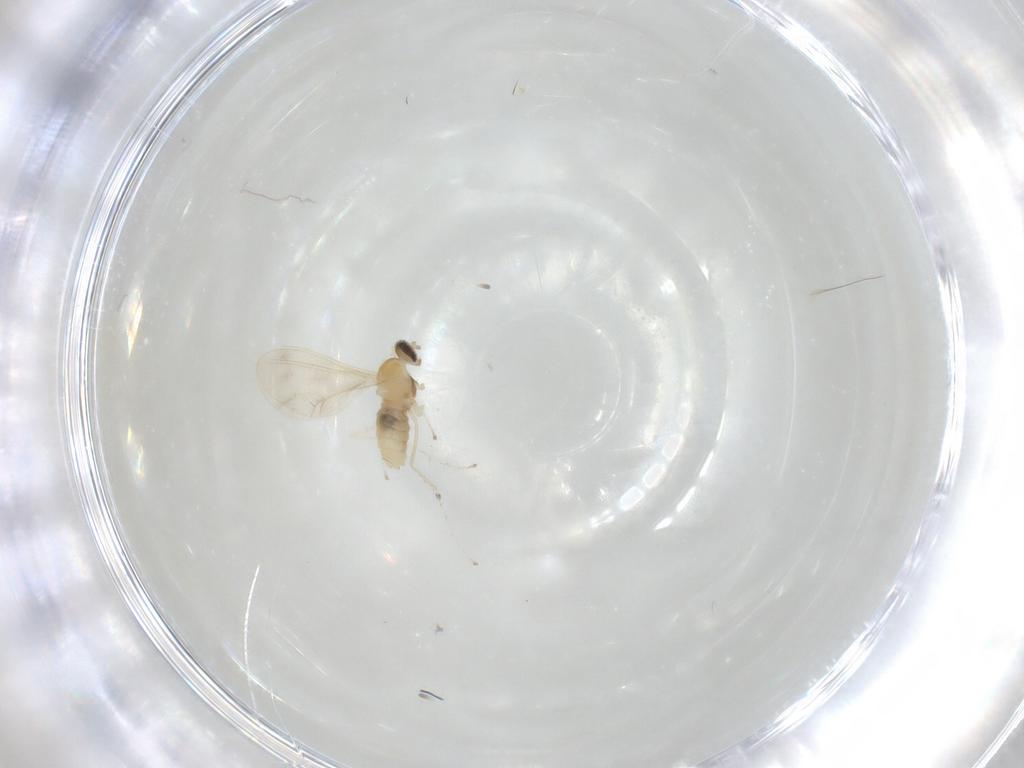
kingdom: Animalia
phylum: Arthropoda
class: Insecta
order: Diptera
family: Cecidomyiidae
